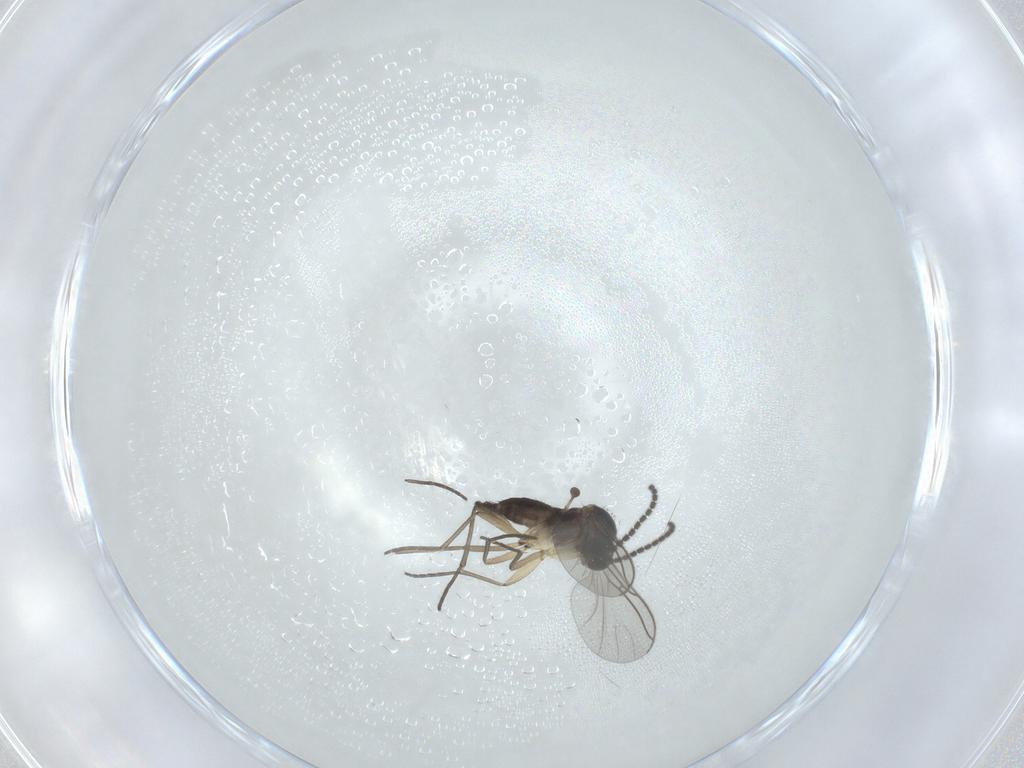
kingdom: Animalia
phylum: Arthropoda
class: Insecta
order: Diptera
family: Sciaridae
